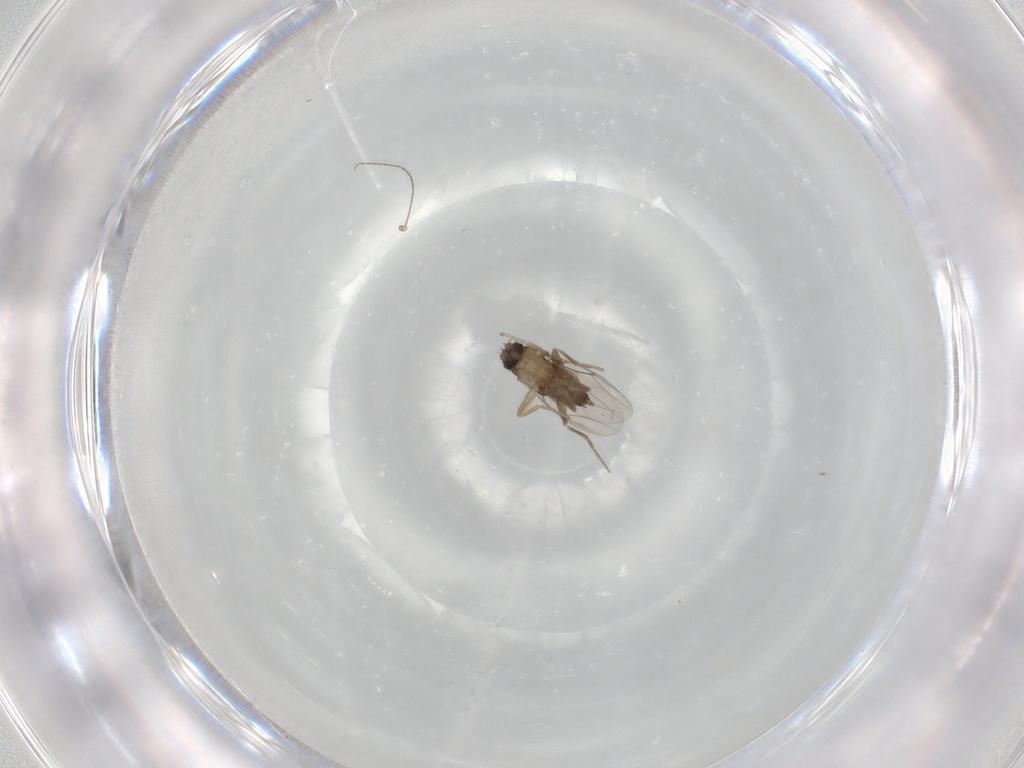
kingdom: Animalia
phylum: Arthropoda
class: Insecta
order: Diptera
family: Phoridae
